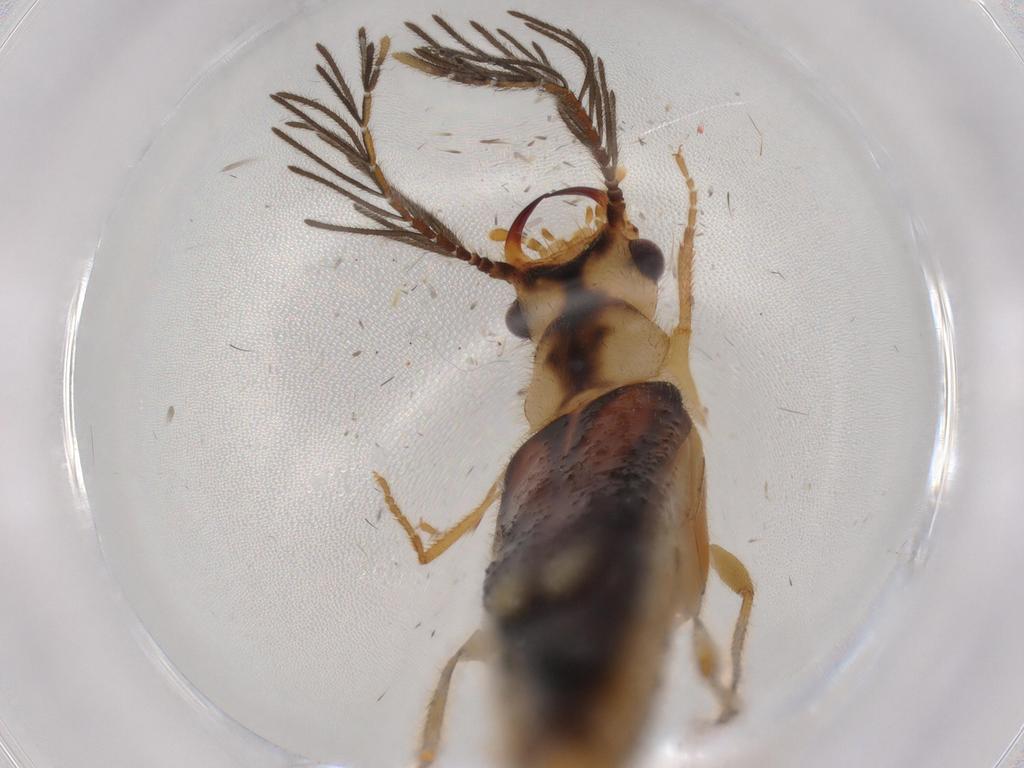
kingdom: Animalia
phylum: Arthropoda
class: Insecta
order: Coleoptera
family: Phengodidae
